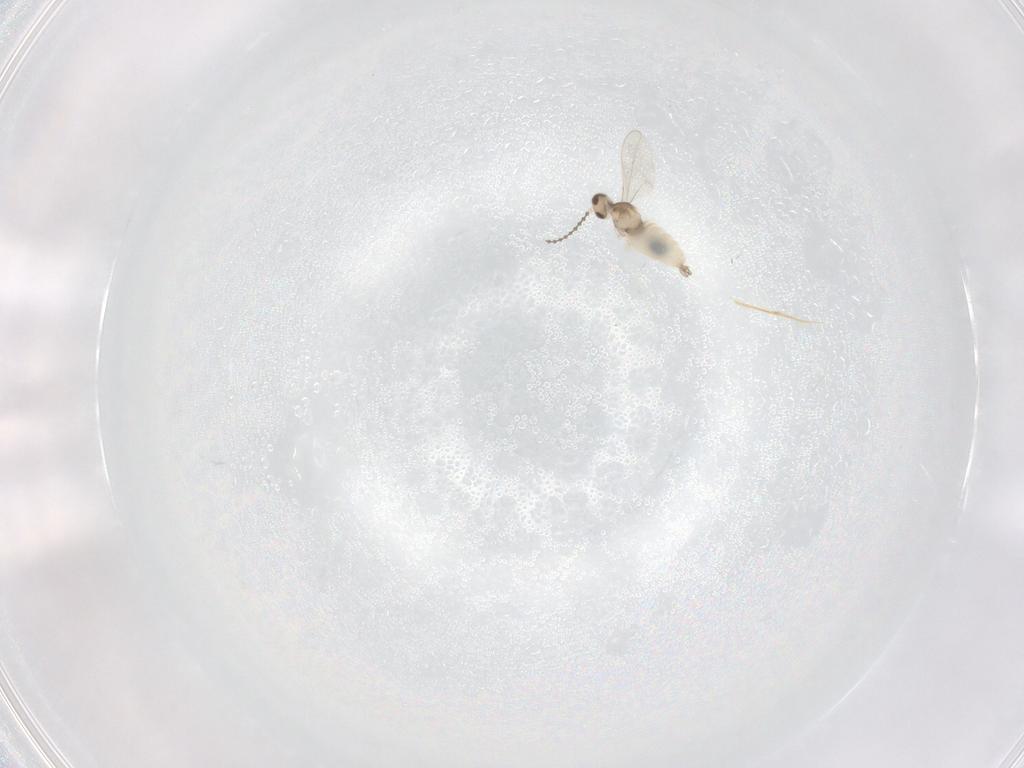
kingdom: Animalia
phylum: Arthropoda
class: Insecta
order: Diptera
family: Cecidomyiidae
